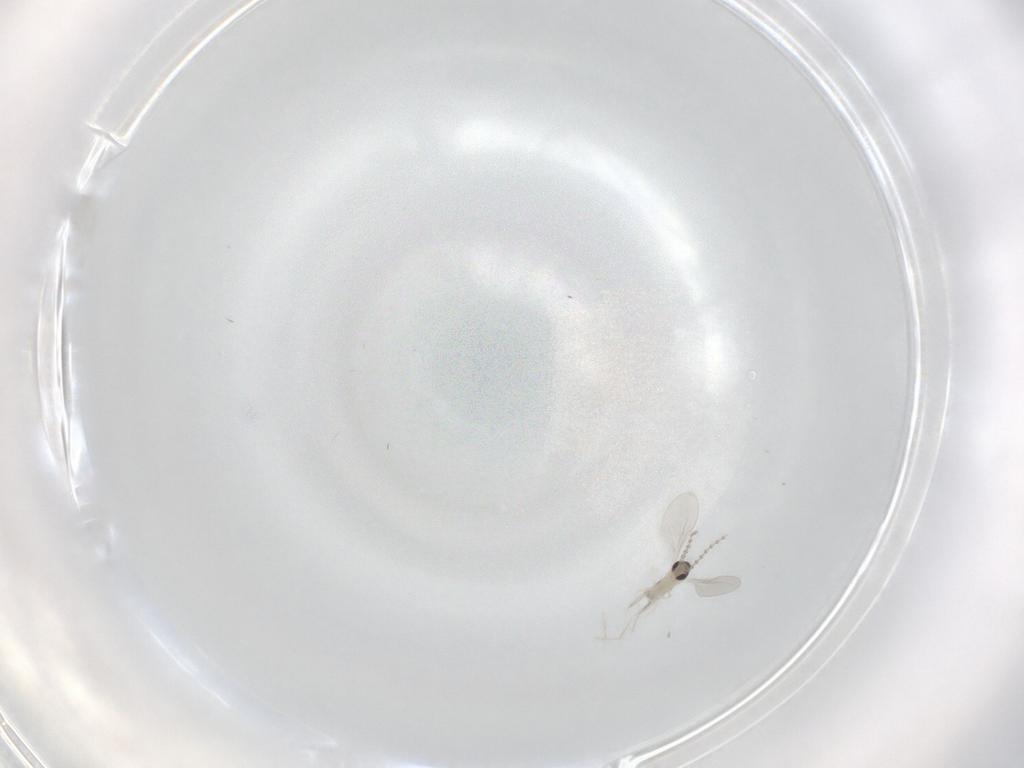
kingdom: Animalia
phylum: Arthropoda
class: Insecta
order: Diptera
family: Cecidomyiidae
